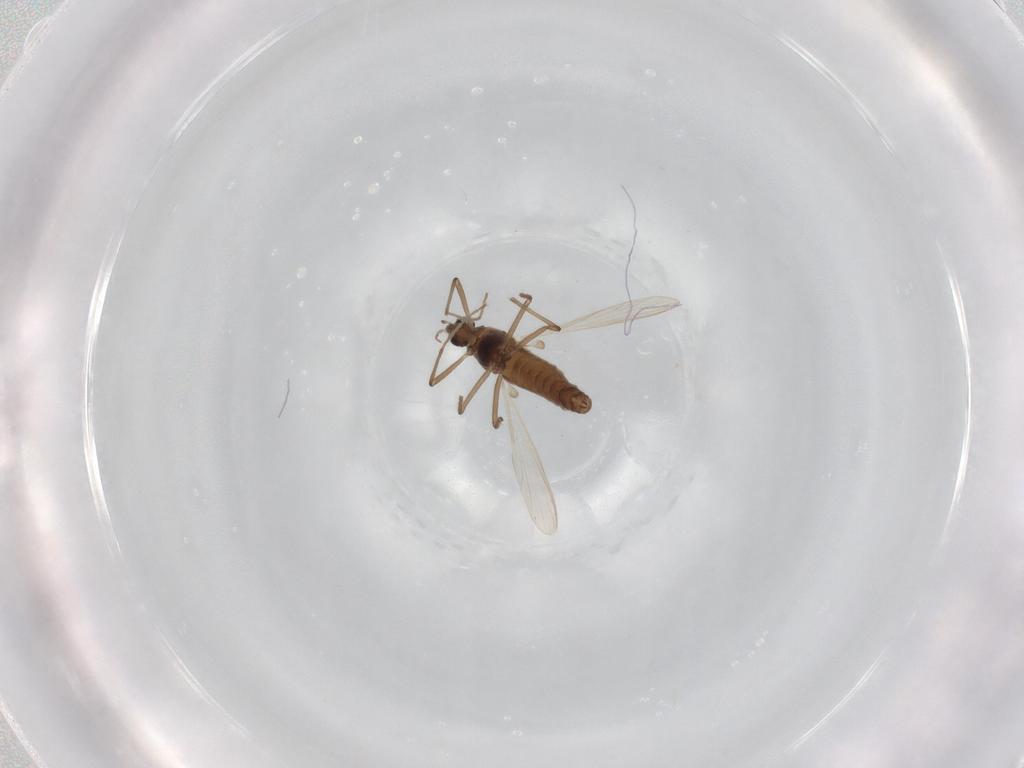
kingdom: Animalia
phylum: Arthropoda
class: Insecta
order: Diptera
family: Chironomidae
